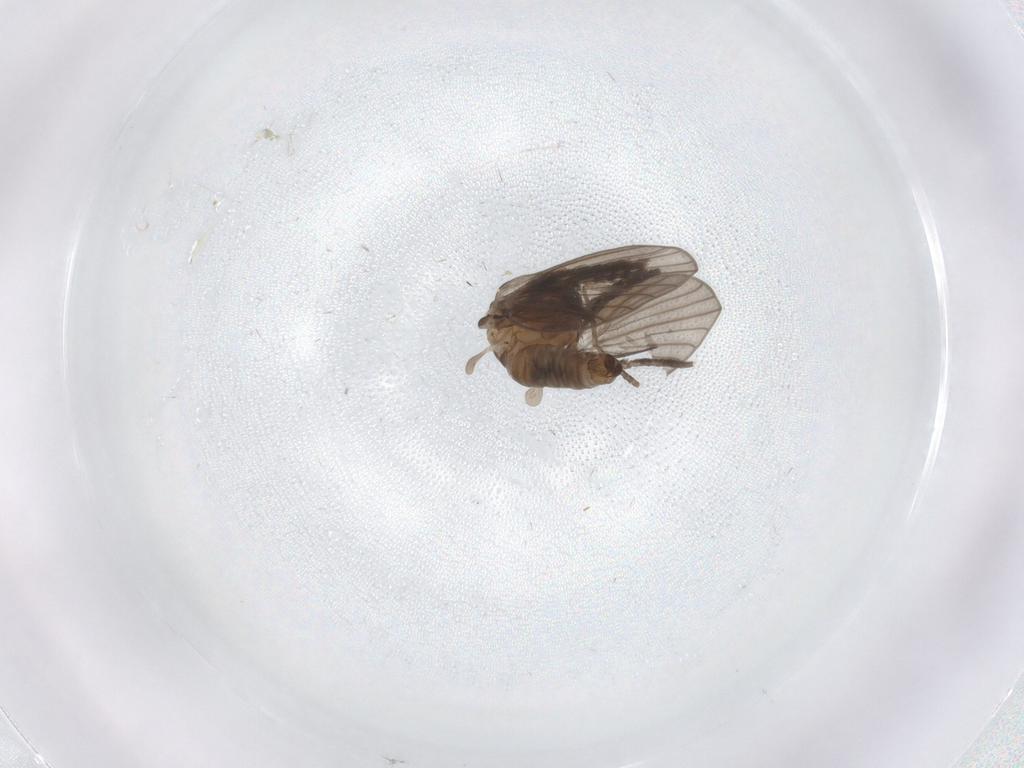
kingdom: Animalia
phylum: Arthropoda
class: Insecta
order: Diptera
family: Psychodidae
